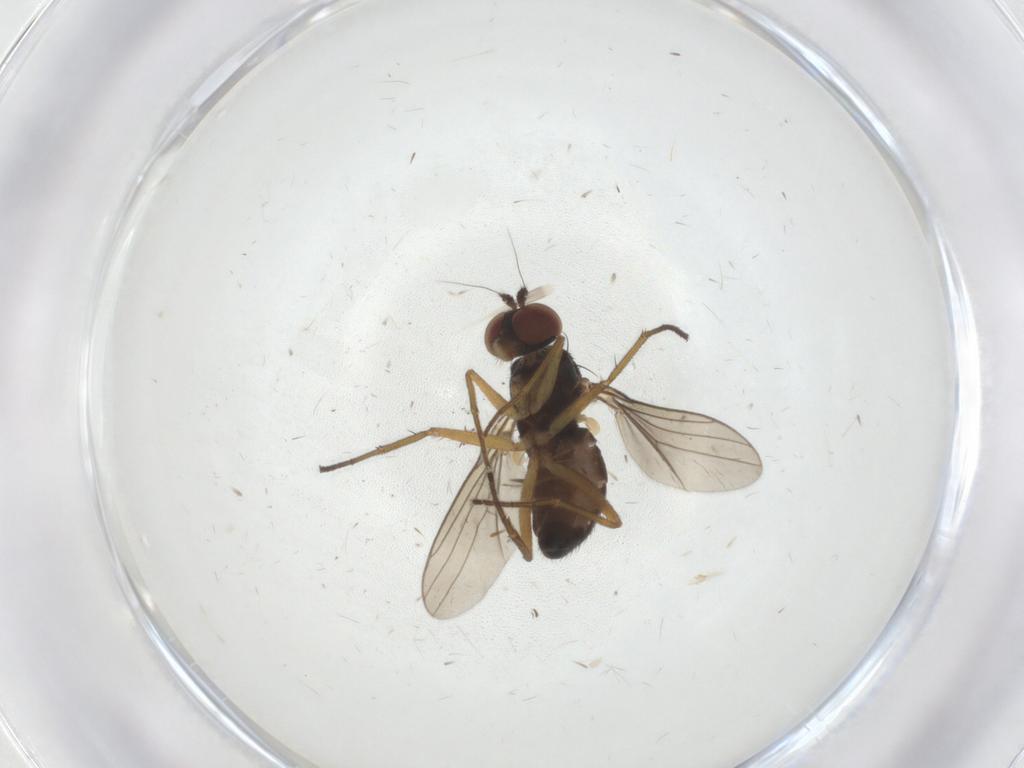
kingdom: Animalia
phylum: Arthropoda
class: Insecta
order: Diptera
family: Dolichopodidae
